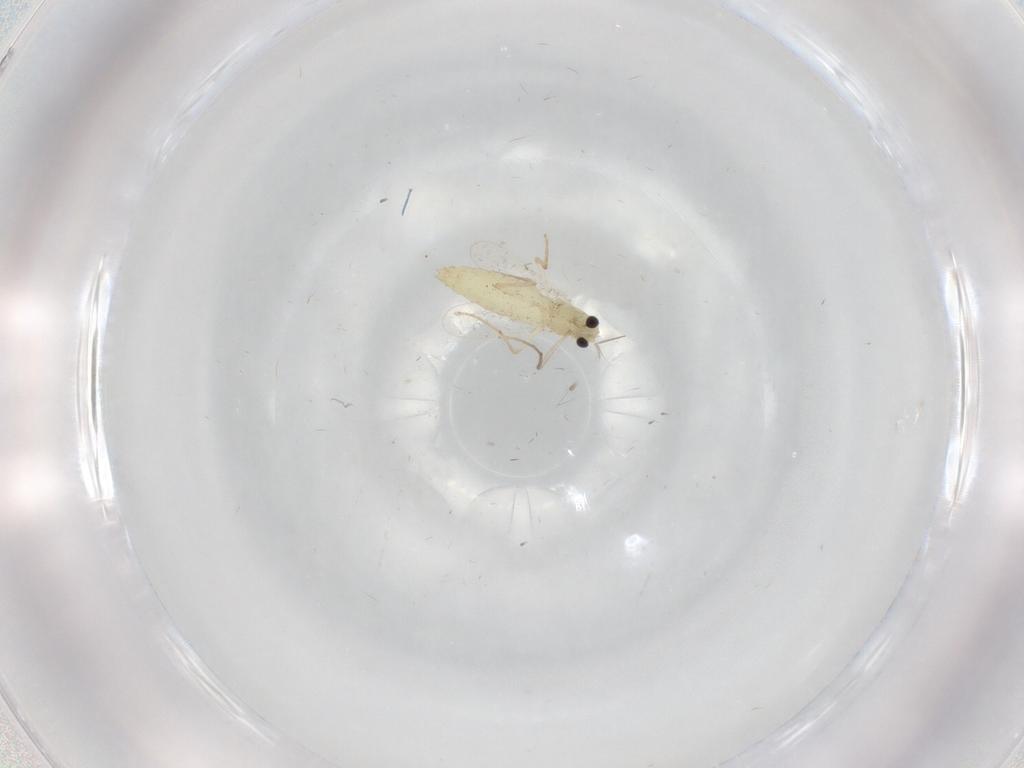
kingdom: Animalia
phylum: Arthropoda
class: Insecta
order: Diptera
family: Chironomidae
